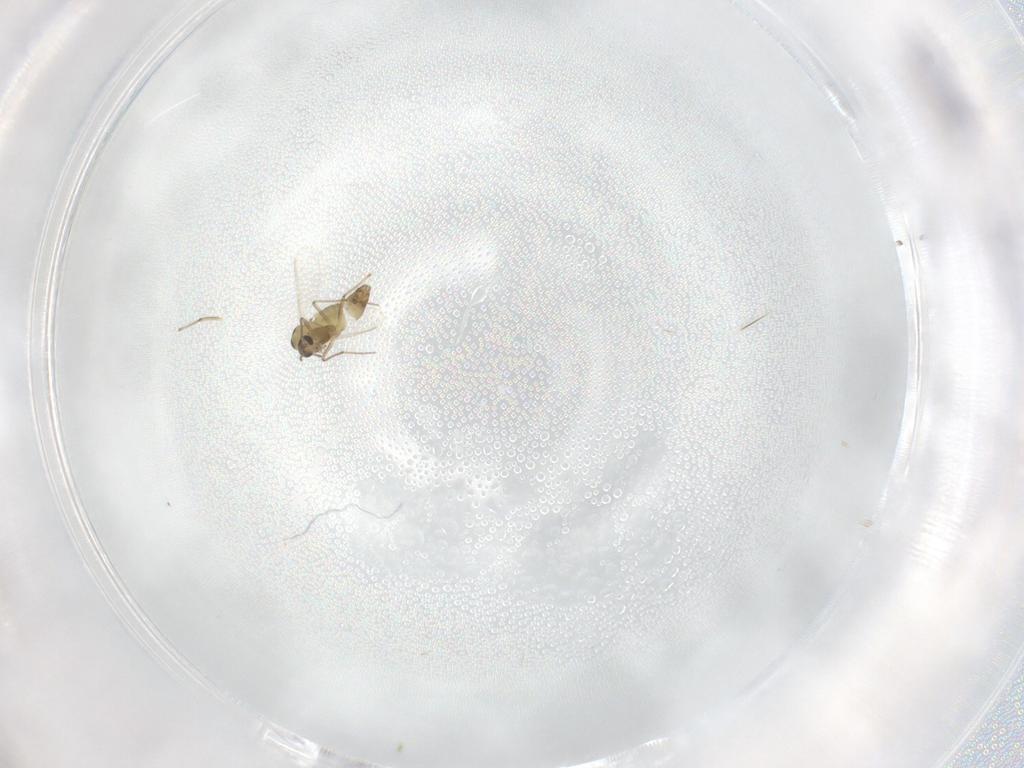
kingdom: Animalia
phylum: Arthropoda
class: Insecta
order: Diptera
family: Chironomidae
